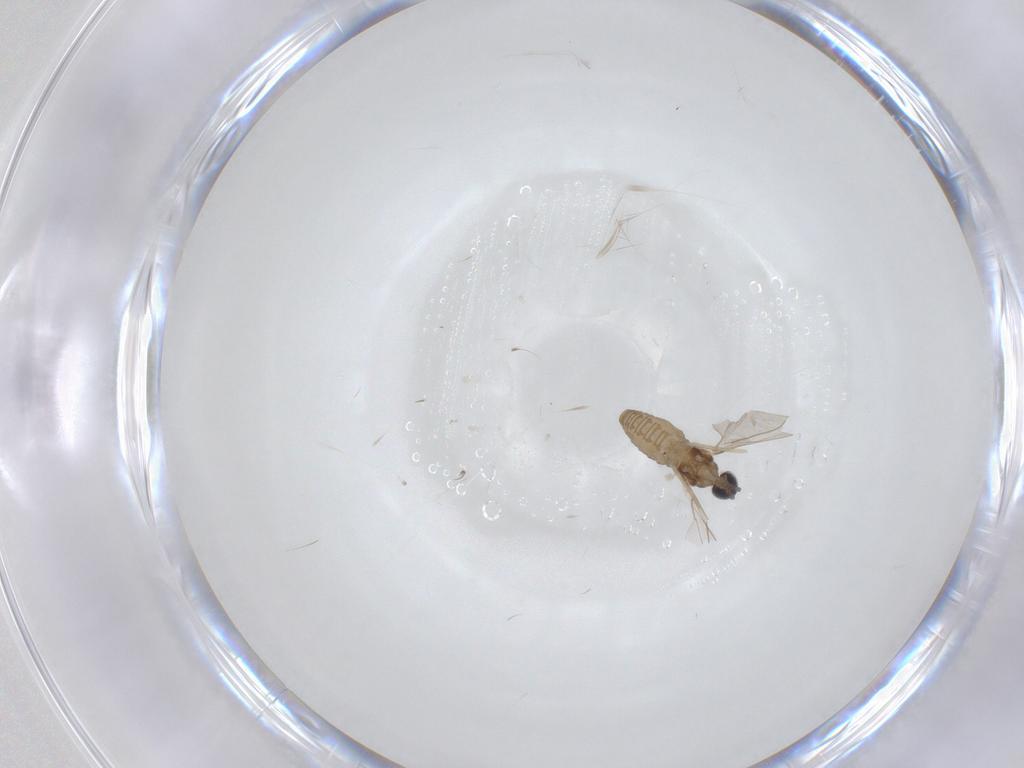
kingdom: Animalia
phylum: Arthropoda
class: Insecta
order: Diptera
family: Cecidomyiidae
